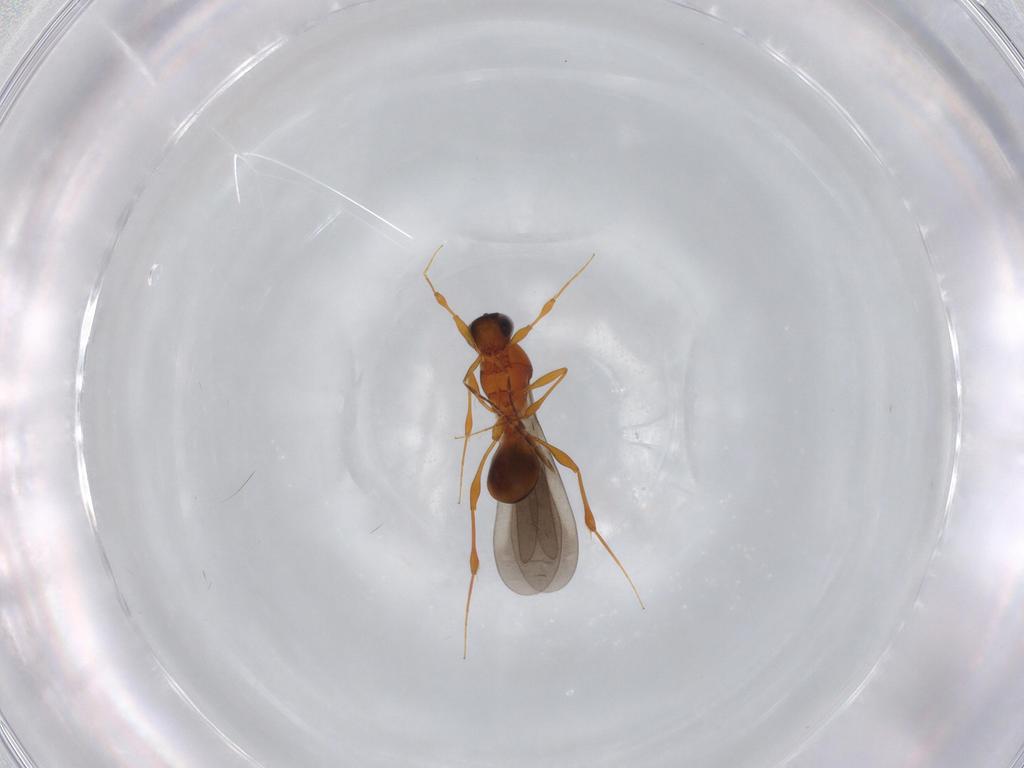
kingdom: Animalia
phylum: Arthropoda
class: Insecta
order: Hymenoptera
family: Platygastridae
